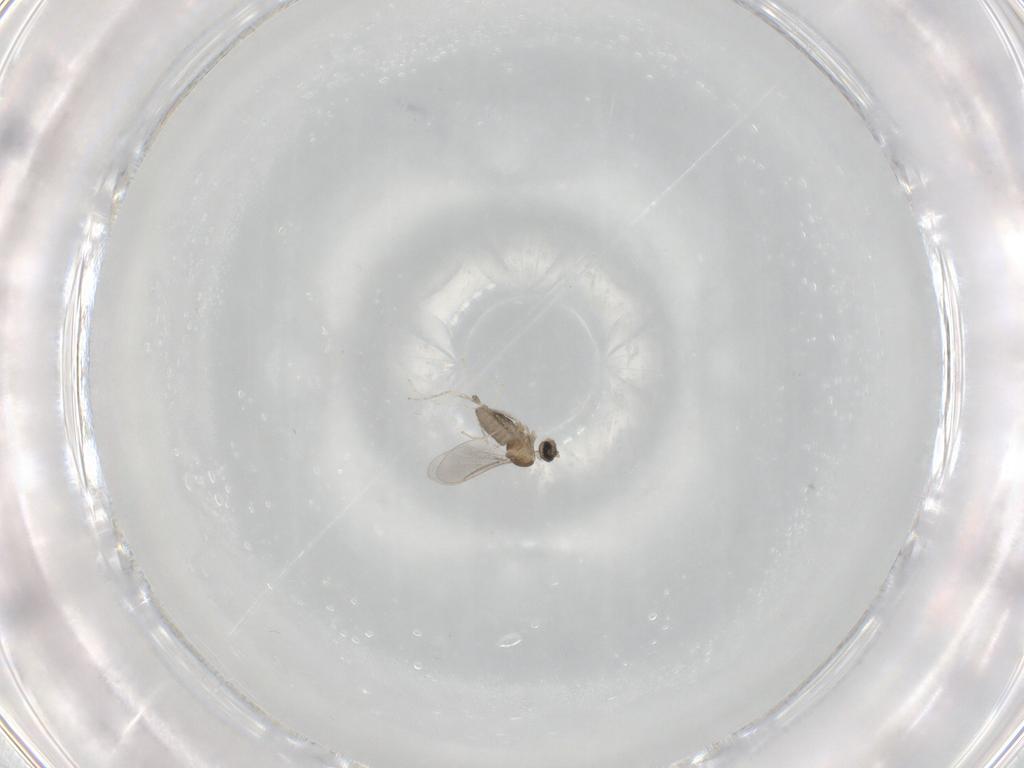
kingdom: Animalia
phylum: Arthropoda
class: Insecta
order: Diptera
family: Cecidomyiidae
